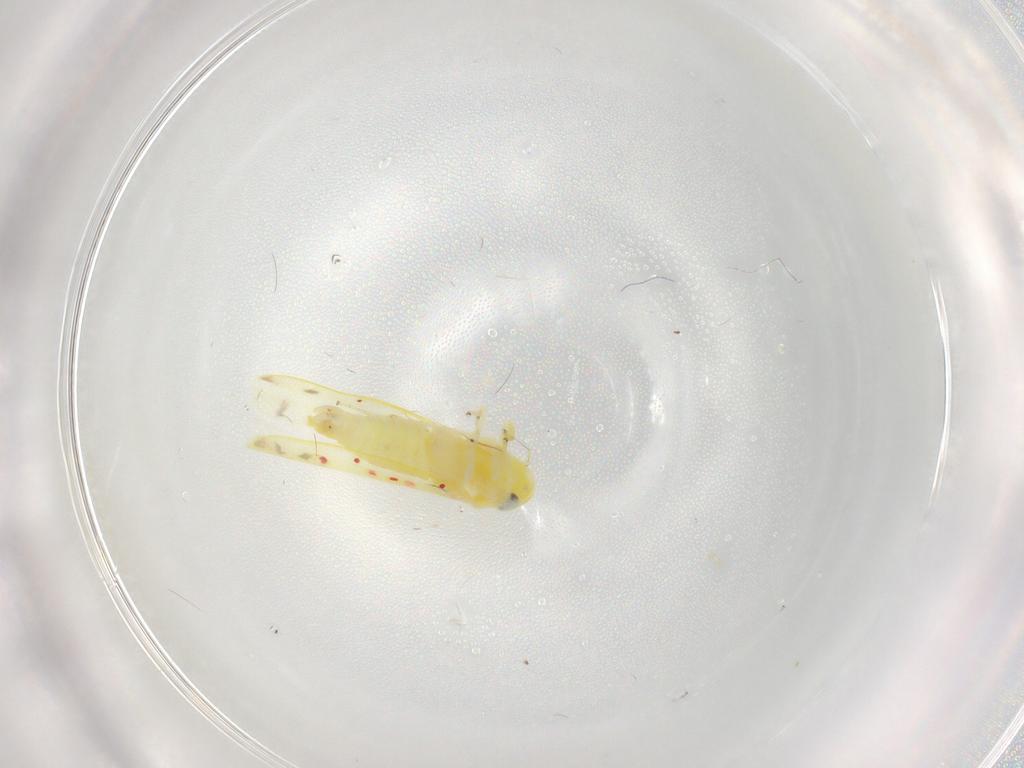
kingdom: Animalia
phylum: Arthropoda
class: Insecta
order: Hemiptera
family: Cicadellidae
